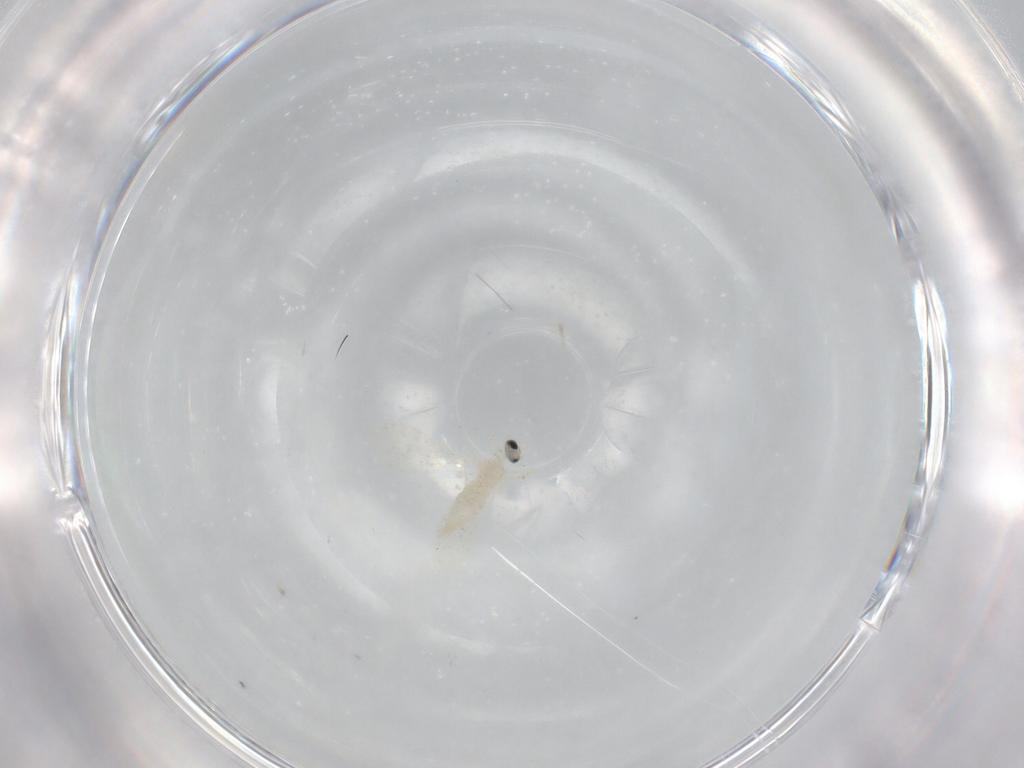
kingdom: Animalia
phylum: Arthropoda
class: Insecta
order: Diptera
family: Cecidomyiidae
